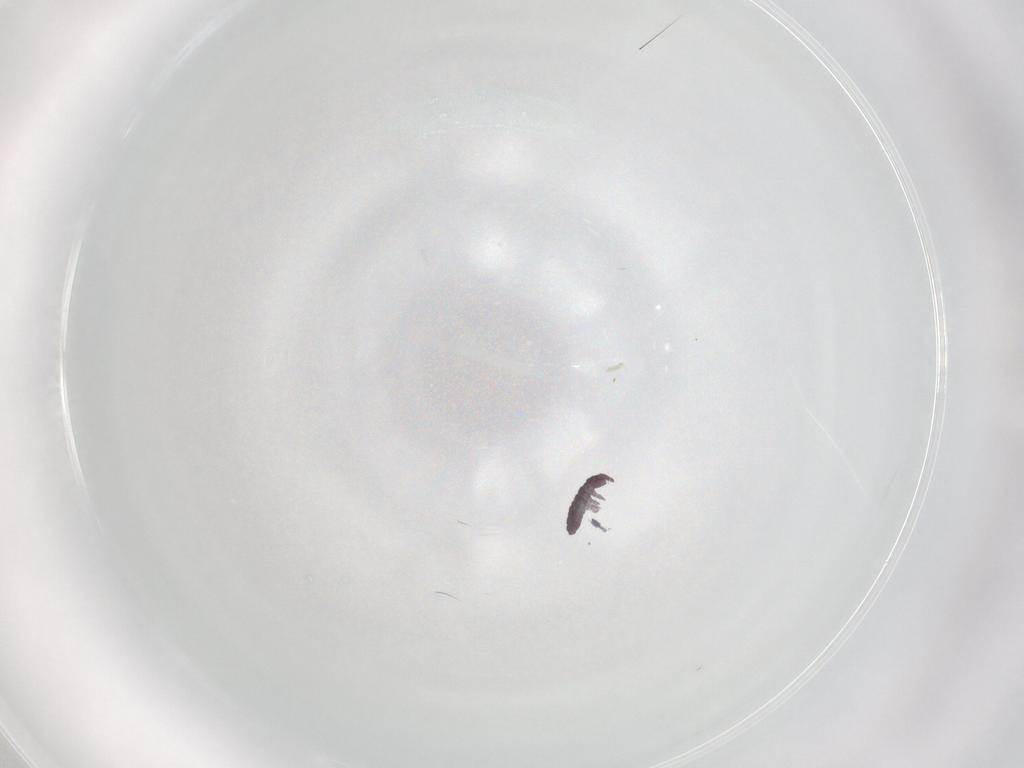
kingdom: Animalia
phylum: Arthropoda
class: Collembola
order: Poduromorpha
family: Hypogastruridae
